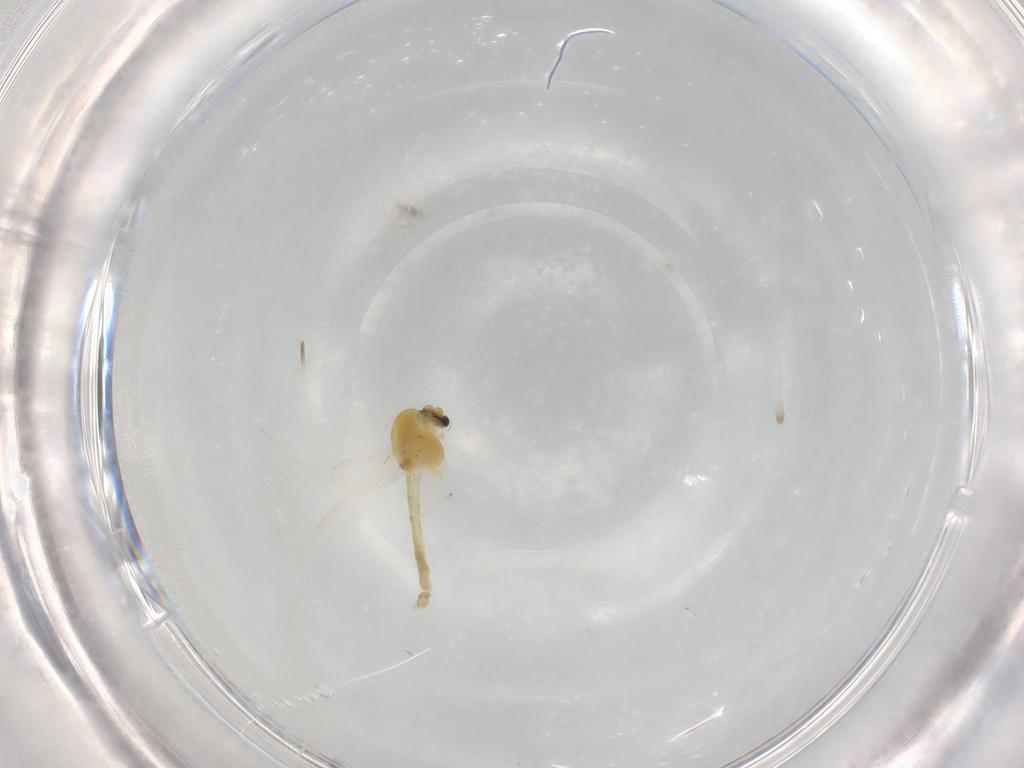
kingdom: Animalia
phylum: Arthropoda
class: Insecta
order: Diptera
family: Chironomidae
